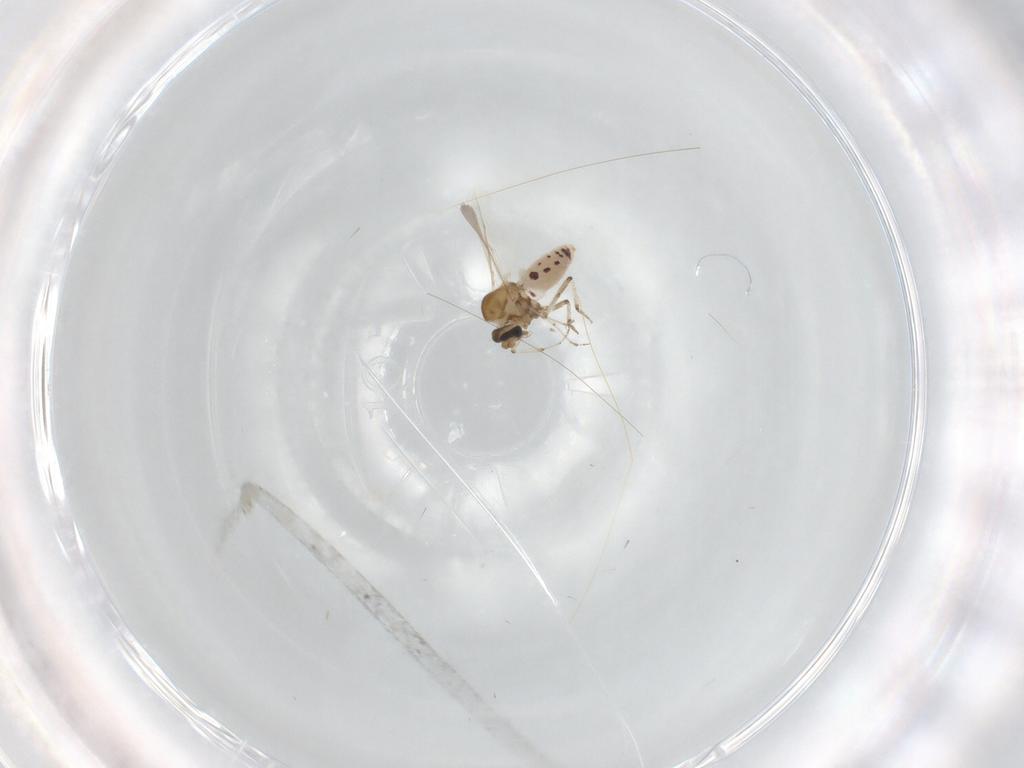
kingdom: Animalia
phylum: Arthropoda
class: Insecta
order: Diptera
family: Ceratopogonidae
